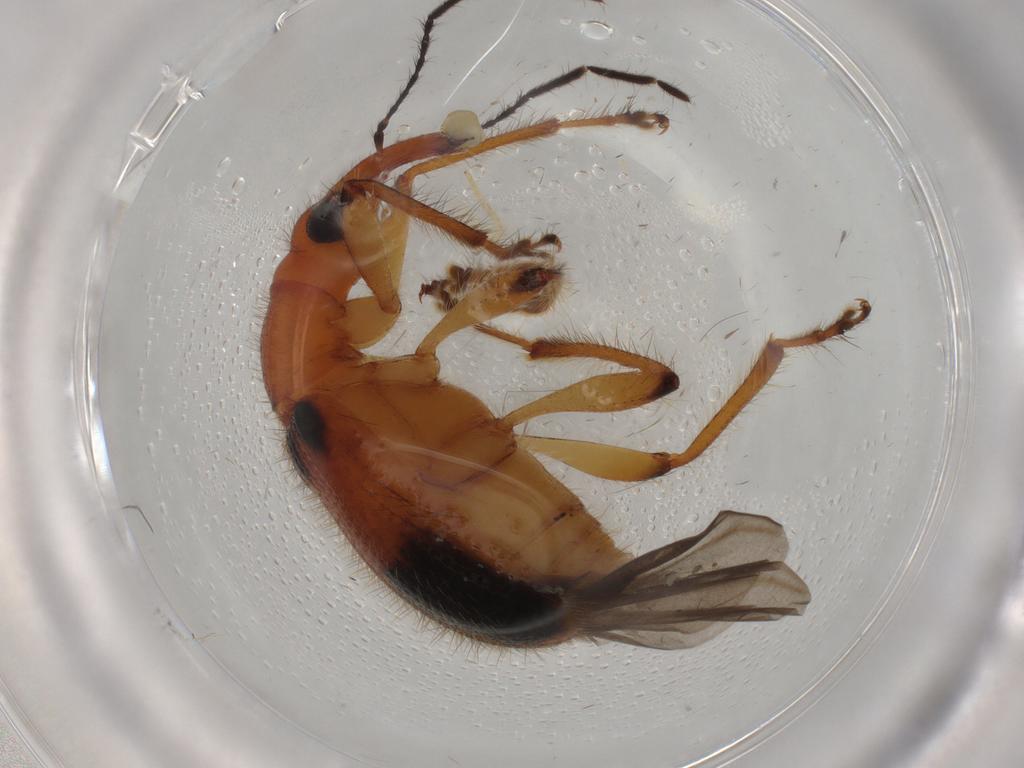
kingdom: Animalia
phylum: Arthropoda
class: Insecta
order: Coleoptera
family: Attelabidae
